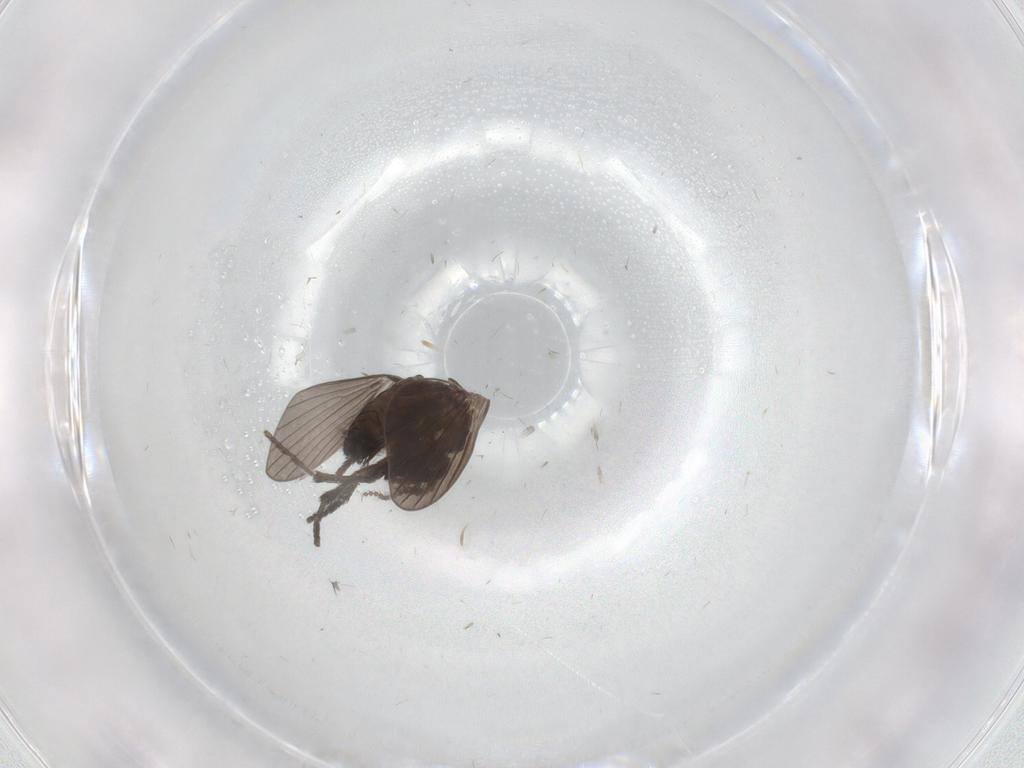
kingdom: Animalia
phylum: Arthropoda
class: Insecta
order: Diptera
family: Psychodidae
